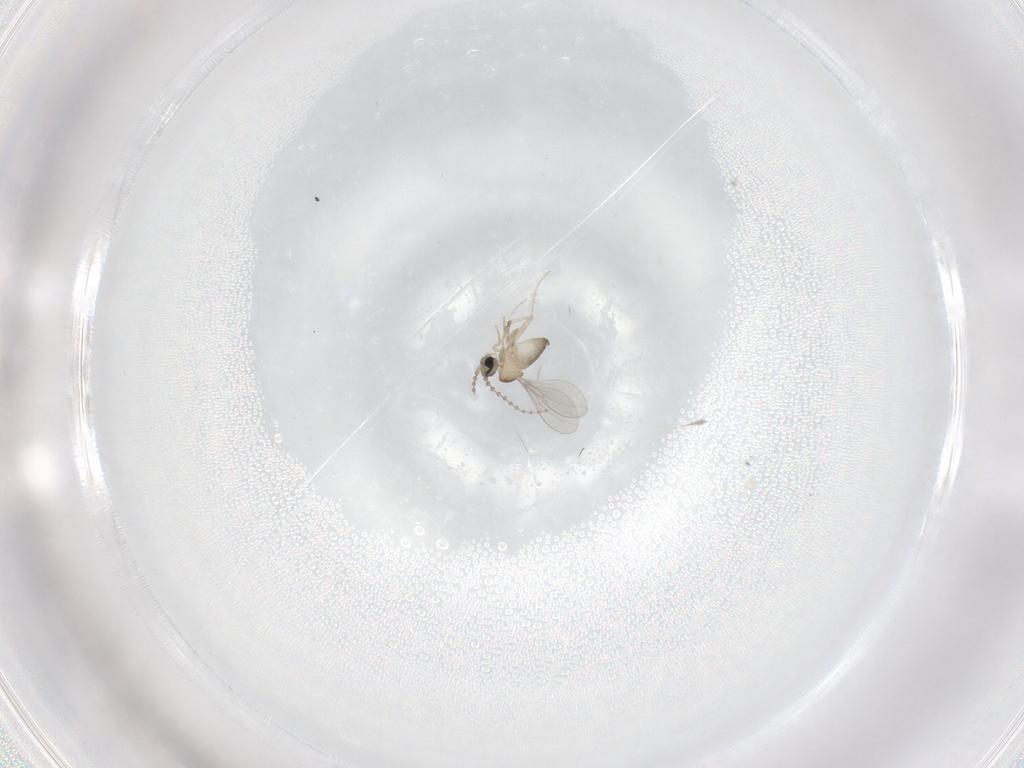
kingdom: Animalia
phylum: Arthropoda
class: Insecta
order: Diptera
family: Cecidomyiidae
